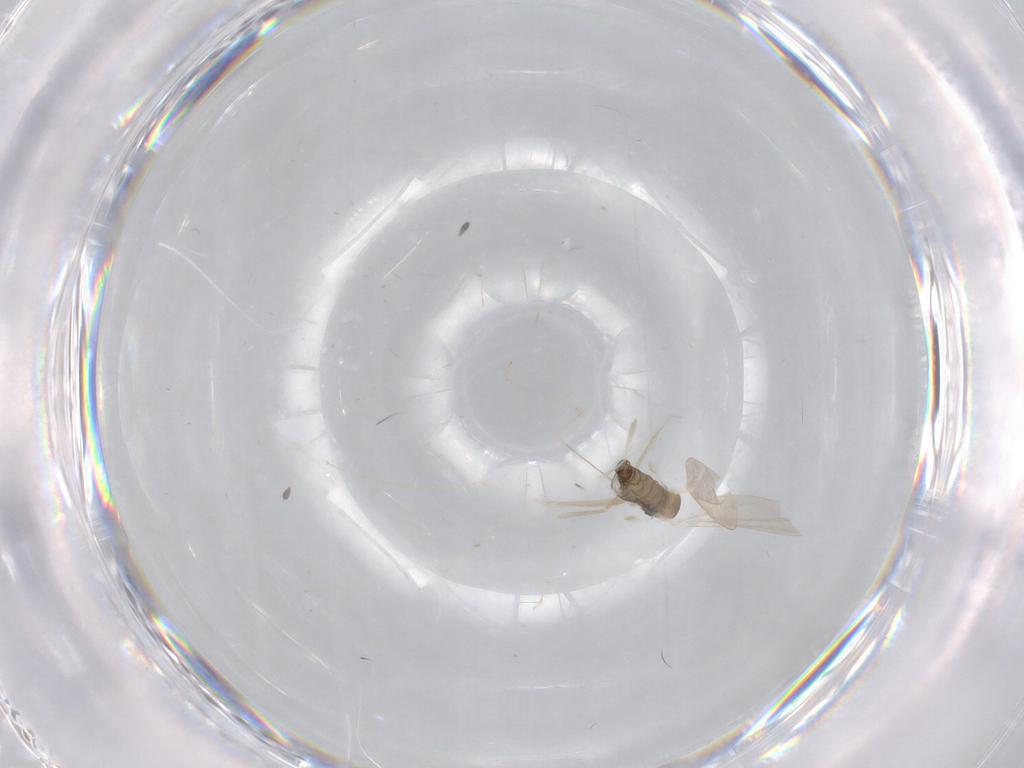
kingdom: Animalia
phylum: Arthropoda
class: Insecta
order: Diptera
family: Cecidomyiidae
